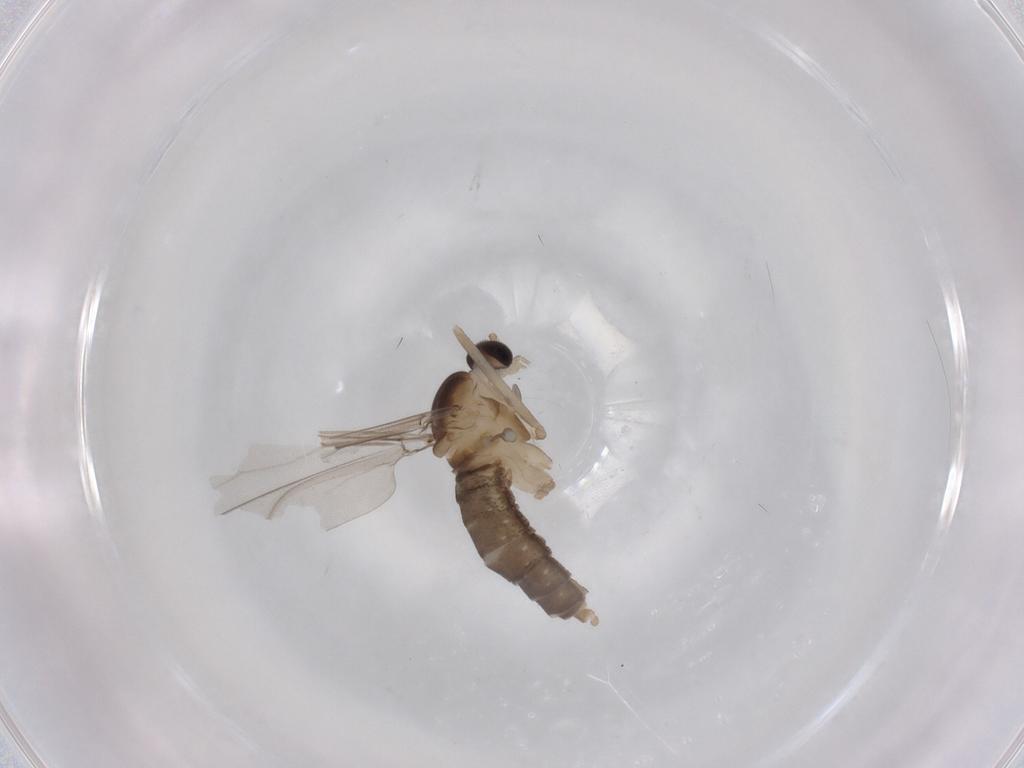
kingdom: Animalia
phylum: Arthropoda
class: Insecta
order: Diptera
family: Cecidomyiidae
